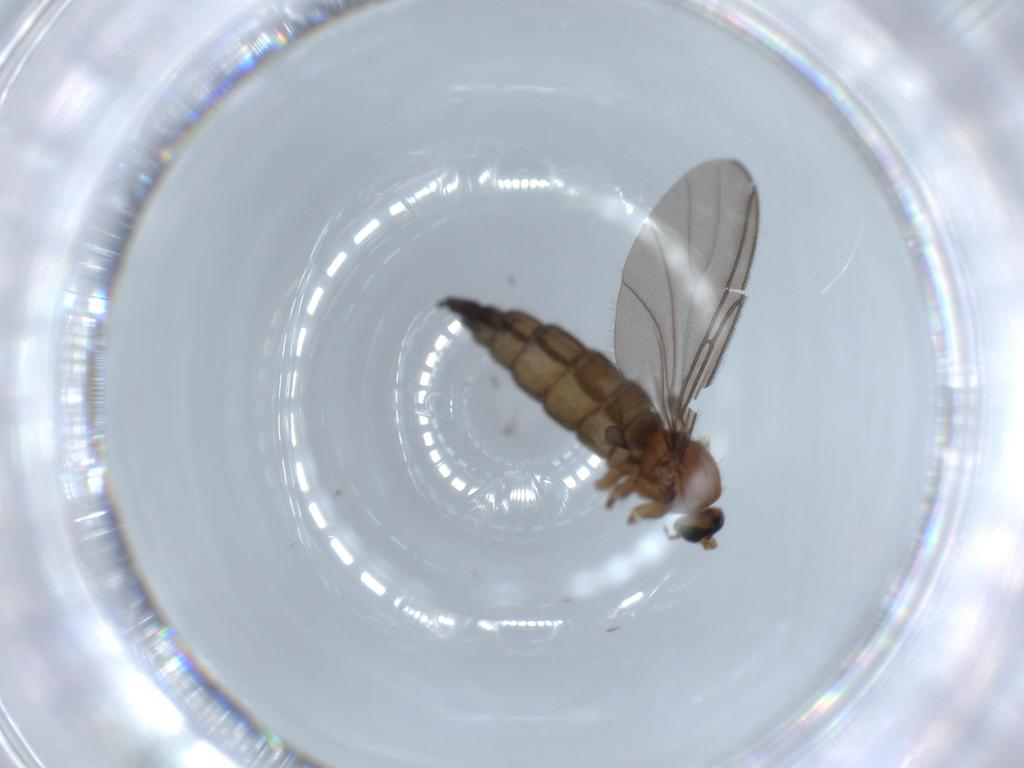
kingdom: Animalia
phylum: Arthropoda
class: Insecta
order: Diptera
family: Sciaridae
